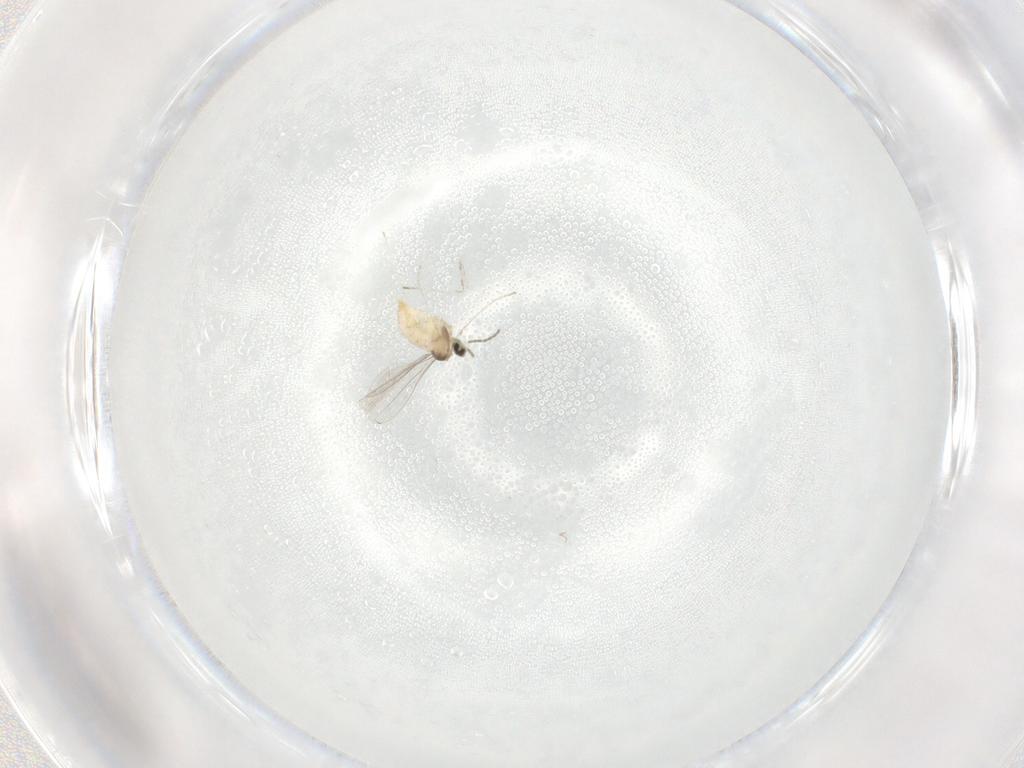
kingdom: Animalia
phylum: Arthropoda
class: Insecta
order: Diptera
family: Cecidomyiidae
